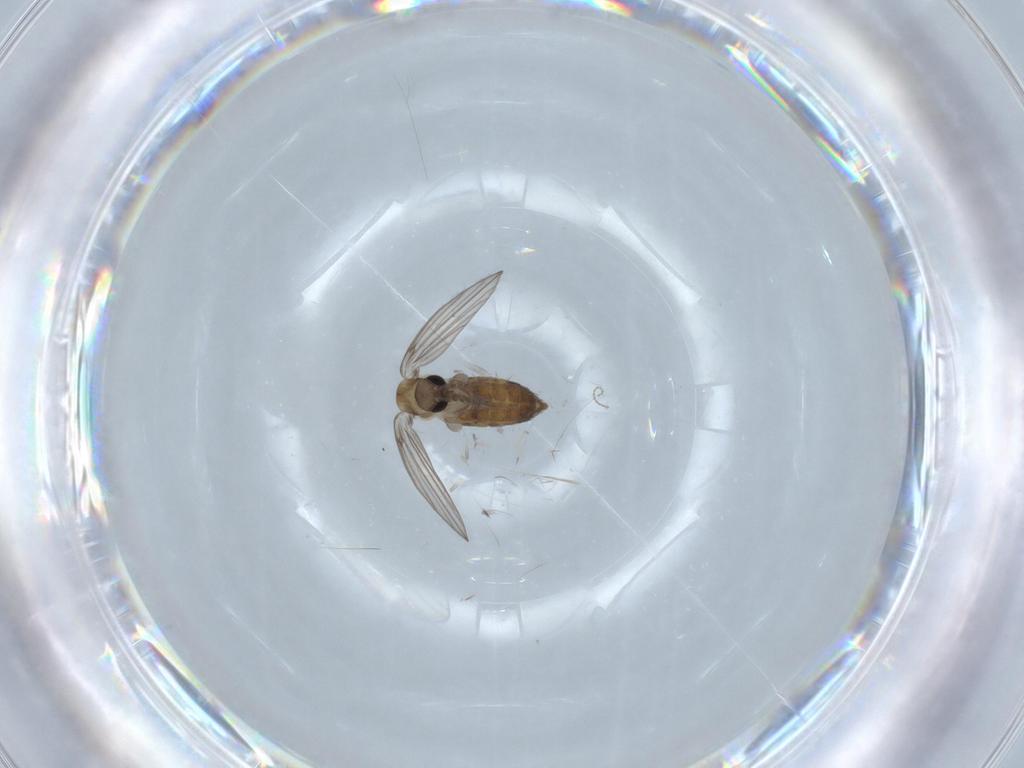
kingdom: Animalia
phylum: Arthropoda
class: Insecta
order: Diptera
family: Psychodidae
